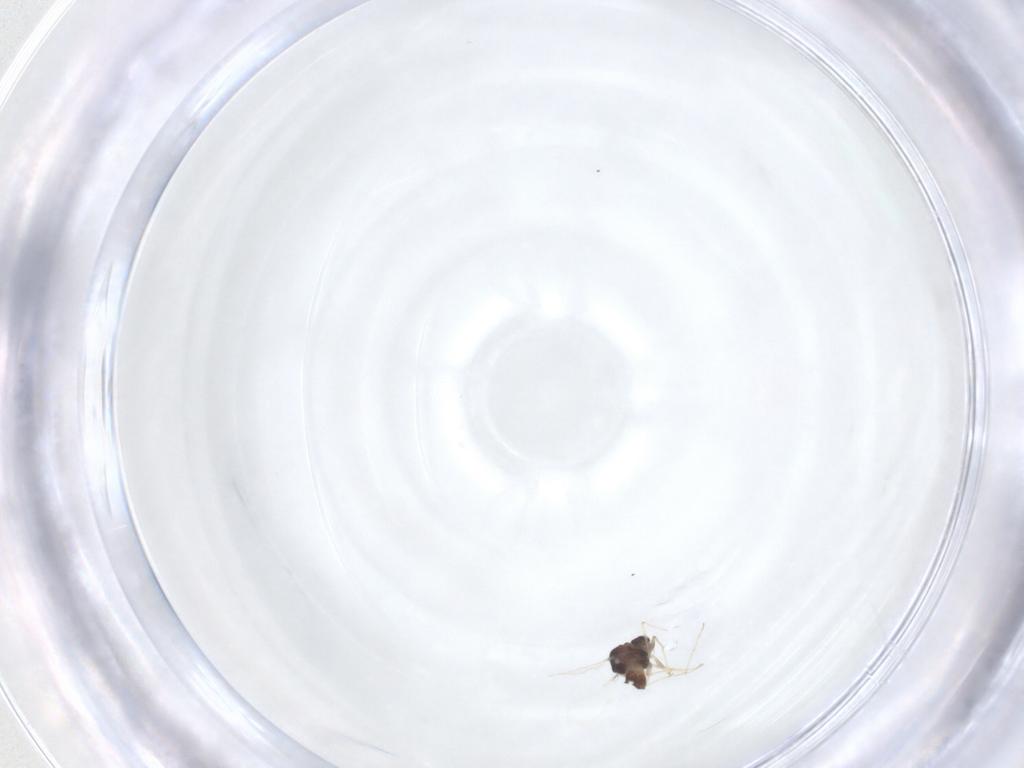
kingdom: Animalia
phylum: Arthropoda
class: Insecta
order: Diptera
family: Chironomidae
